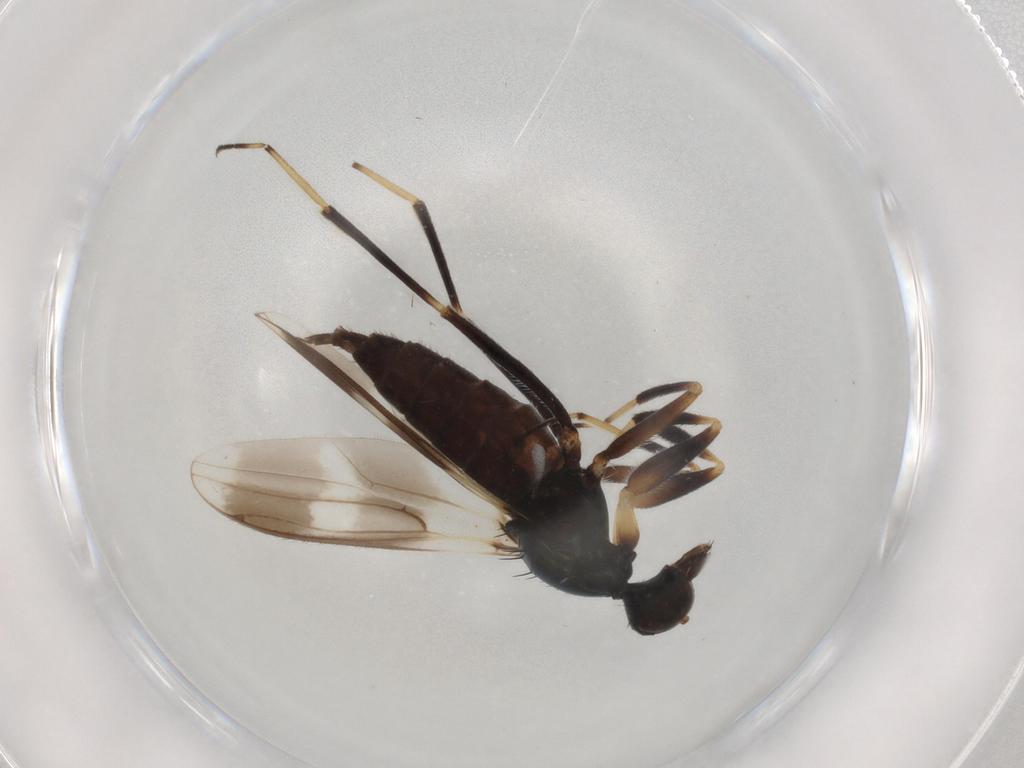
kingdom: Animalia
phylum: Arthropoda
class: Insecta
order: Diptera
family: Hybotidae
